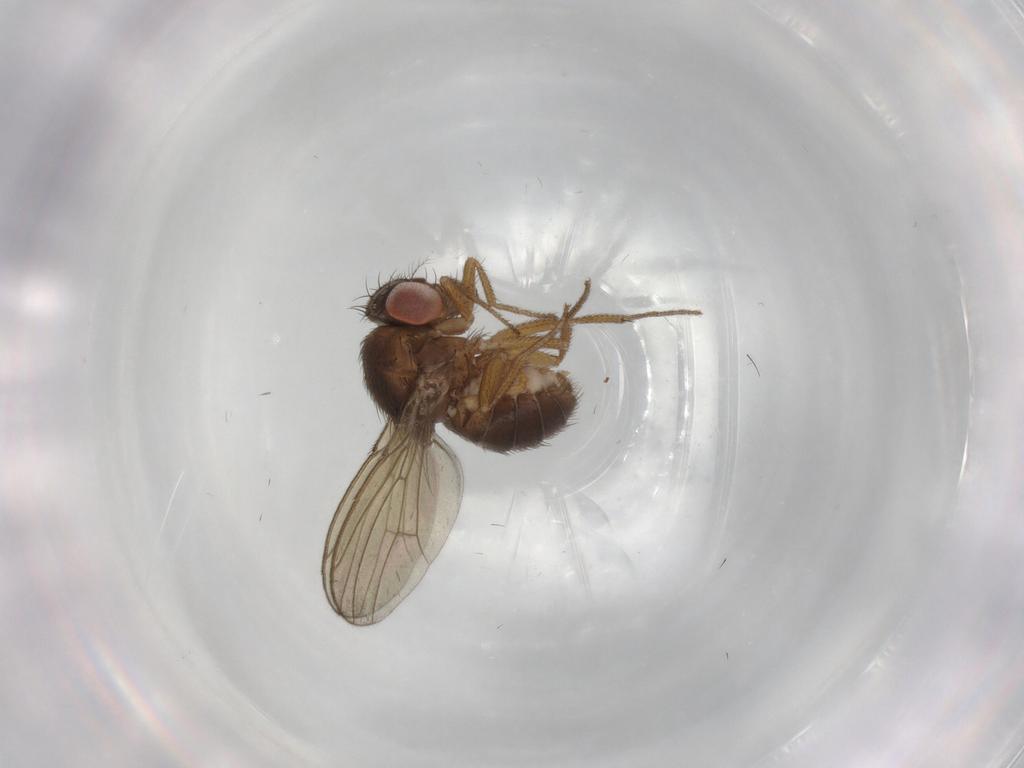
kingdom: Animalia
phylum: Arthropoda
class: Insecta
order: Diptera
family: Drosophilidae
